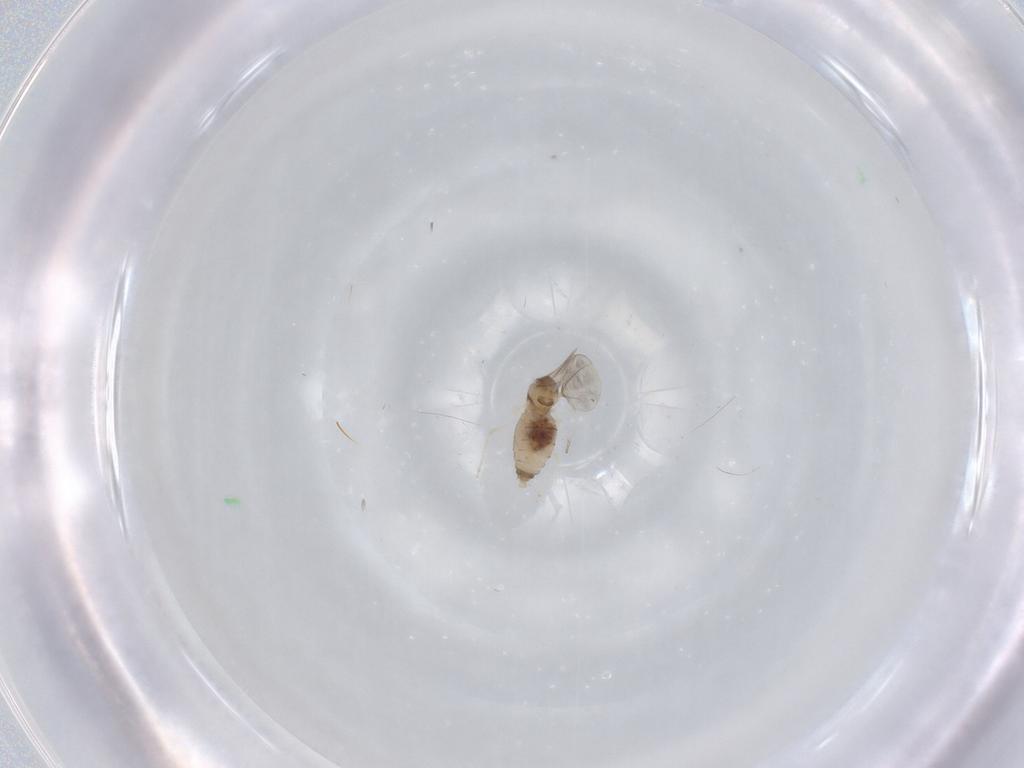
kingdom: Animalia
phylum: Arthropoda
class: Insecta
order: Diptera
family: Cecidomyiidae
